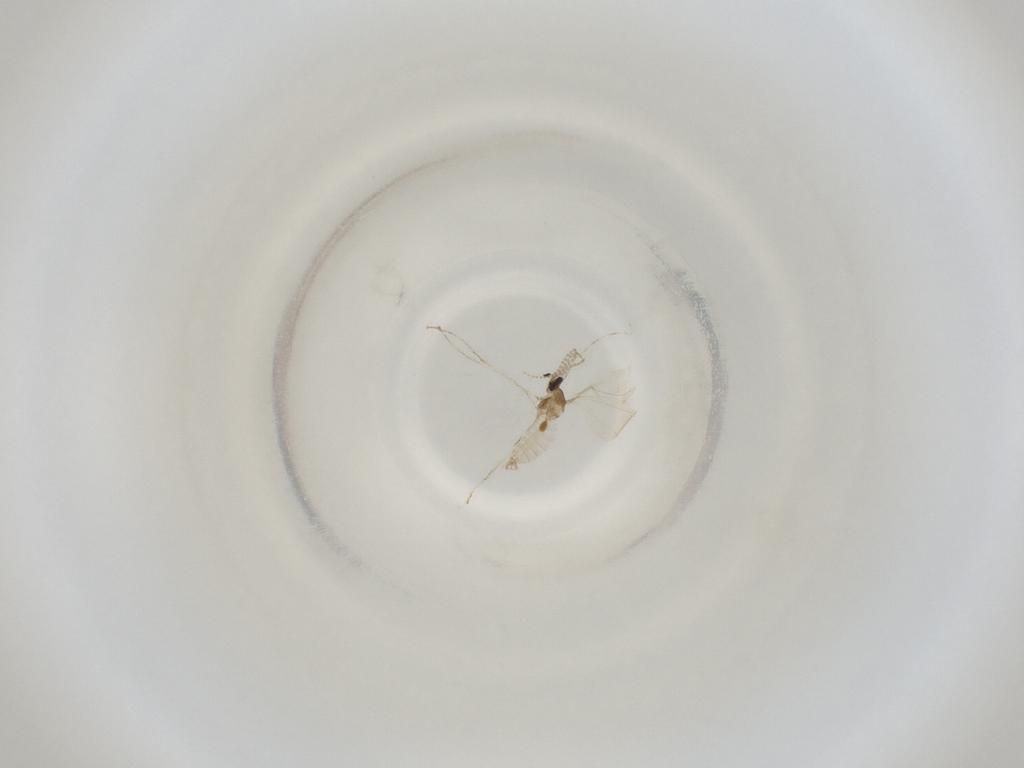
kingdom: Animalia
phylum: Arthropoda
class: Insecta
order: Diptera
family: Cecidomyiidae
